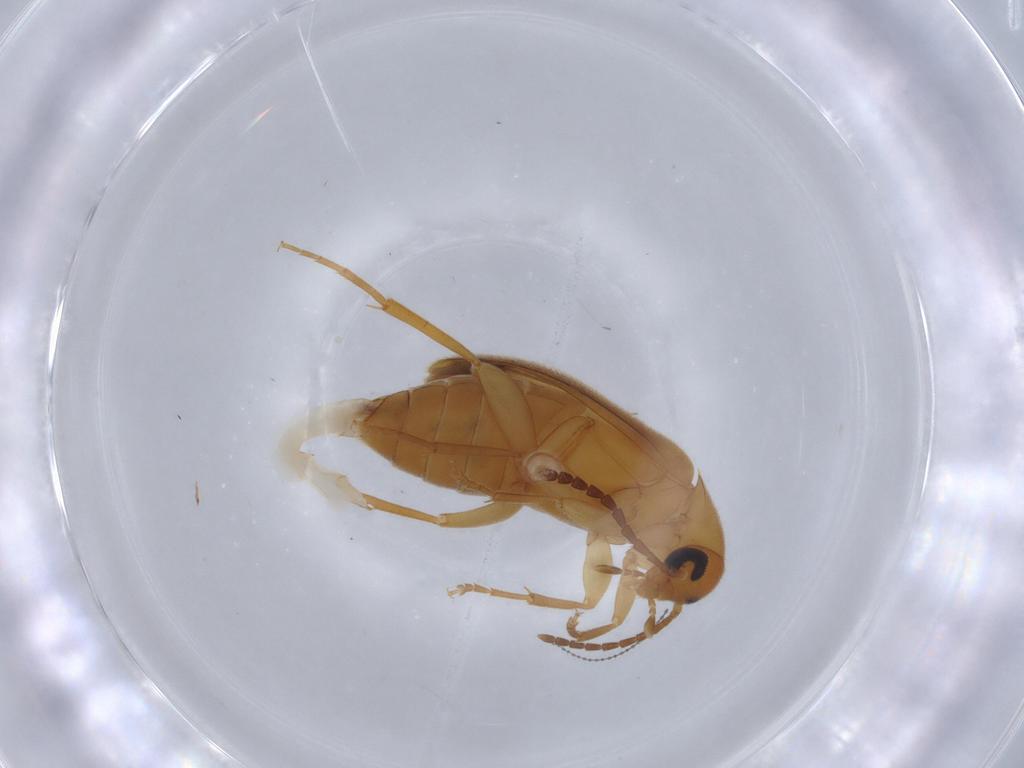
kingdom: Animalia
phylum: Arthropoda
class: Insecta
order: Coleoptera
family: Scraptiidae
